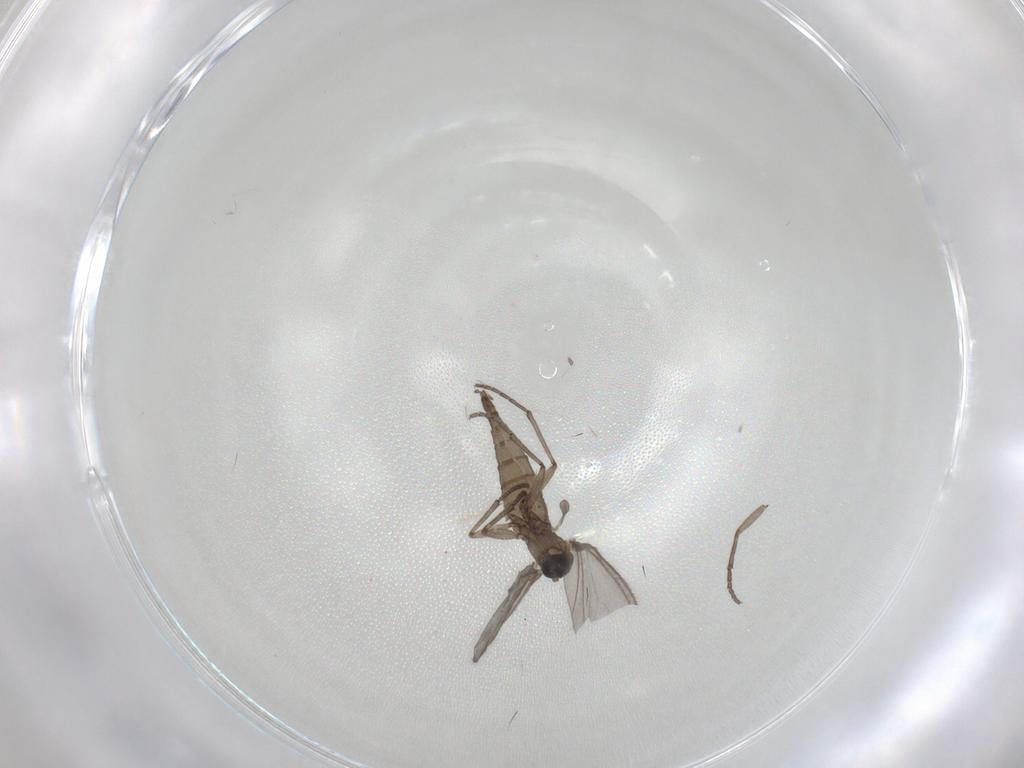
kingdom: Animalia
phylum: Arthropoda
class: Insecta
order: Diptera
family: Sciaridae
